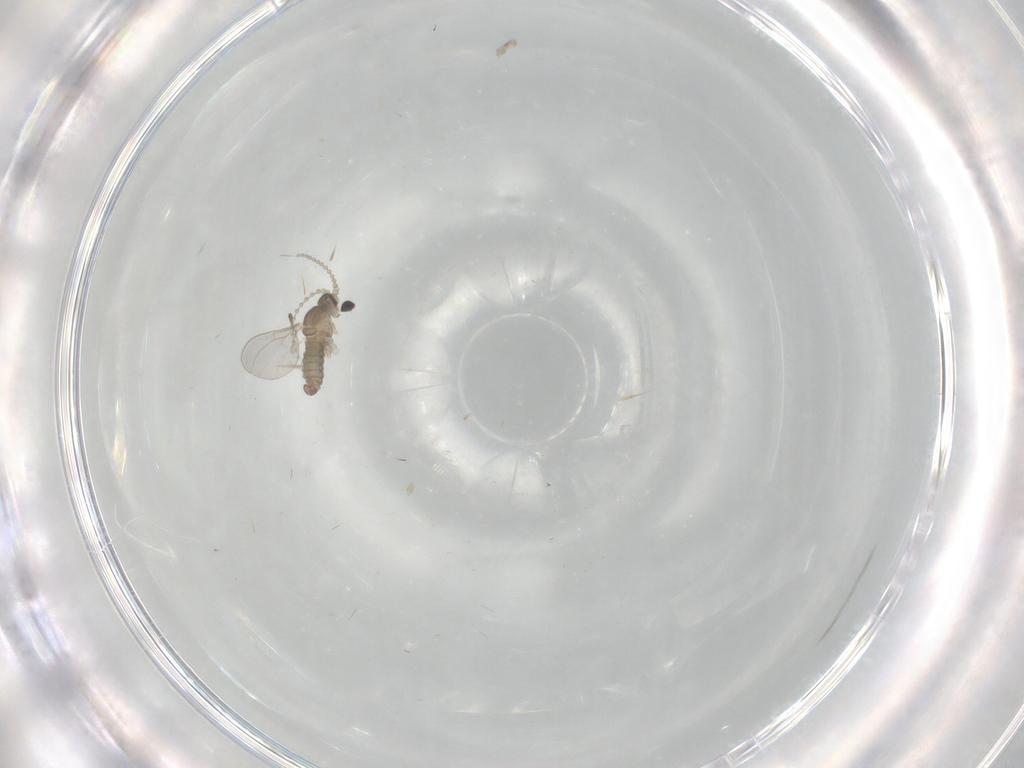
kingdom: Animalia
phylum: Arthropoda
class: Insecta
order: Diptera
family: Cecidomyiidae
